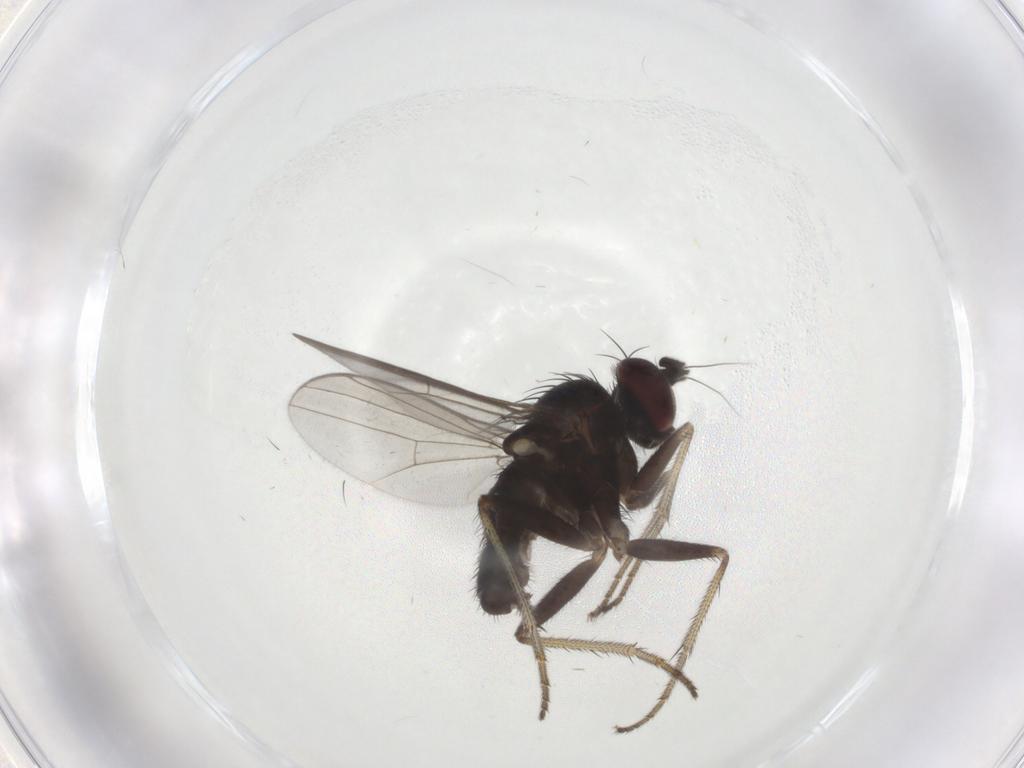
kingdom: Animalia
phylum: Arthropoda
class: Insecta
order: Diptera
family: Dolichopodidae
